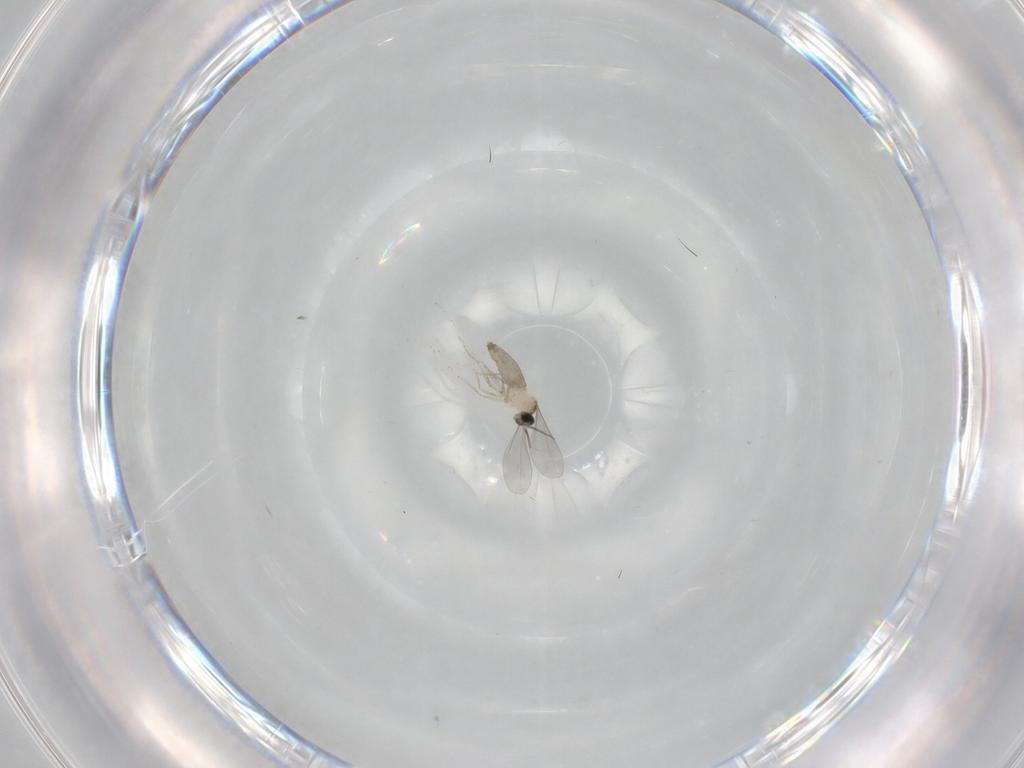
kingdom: Animalia
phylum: Arthropoda
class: Insecta
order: Diptera
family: Cecidomyiidae
